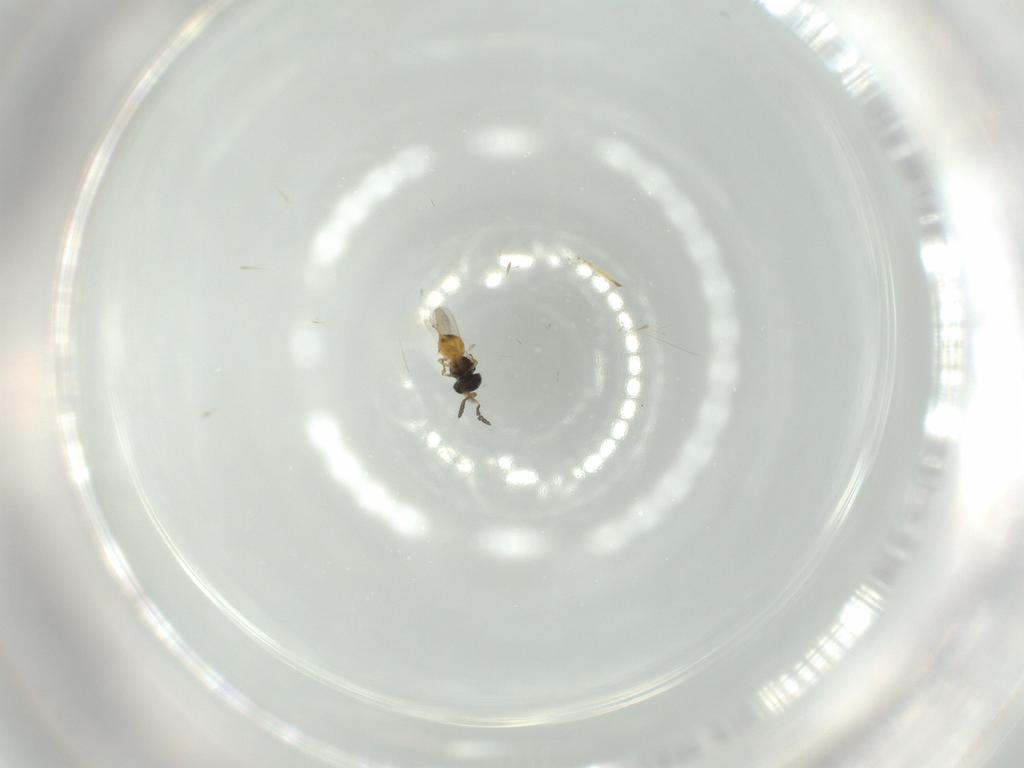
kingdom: Animalia
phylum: Arthropoda
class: Insecta
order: Hymenoptera
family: Scelionidae
